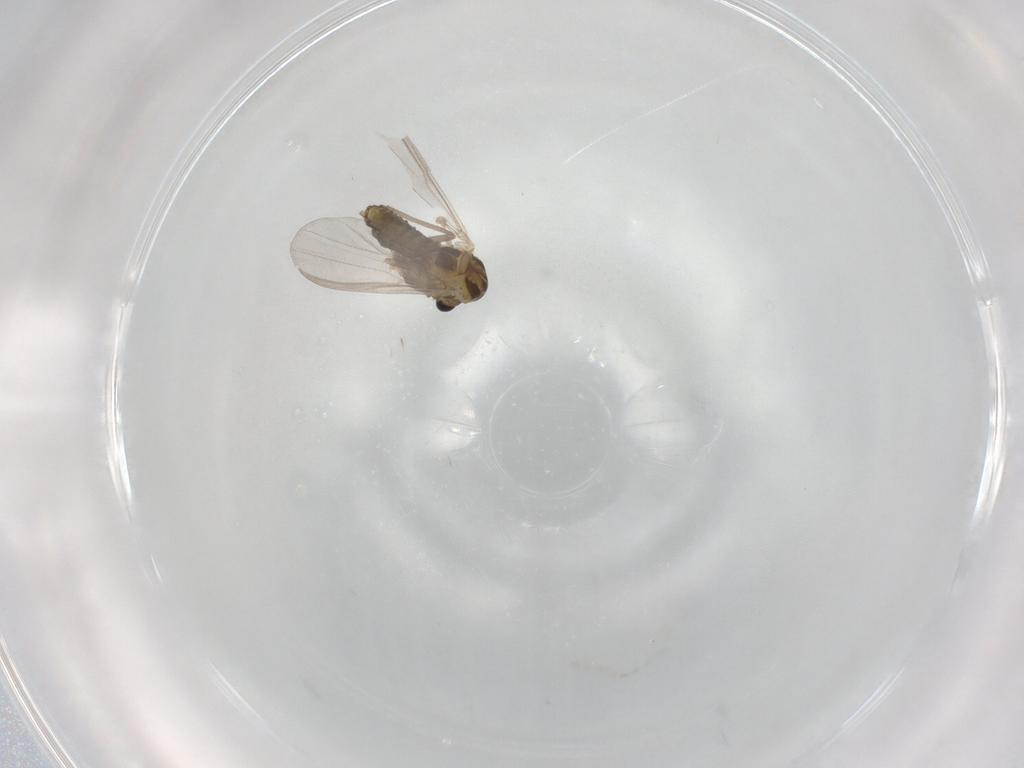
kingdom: Animalia
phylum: Arthropoda
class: Insecta
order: Diptera
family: Chironomidae
